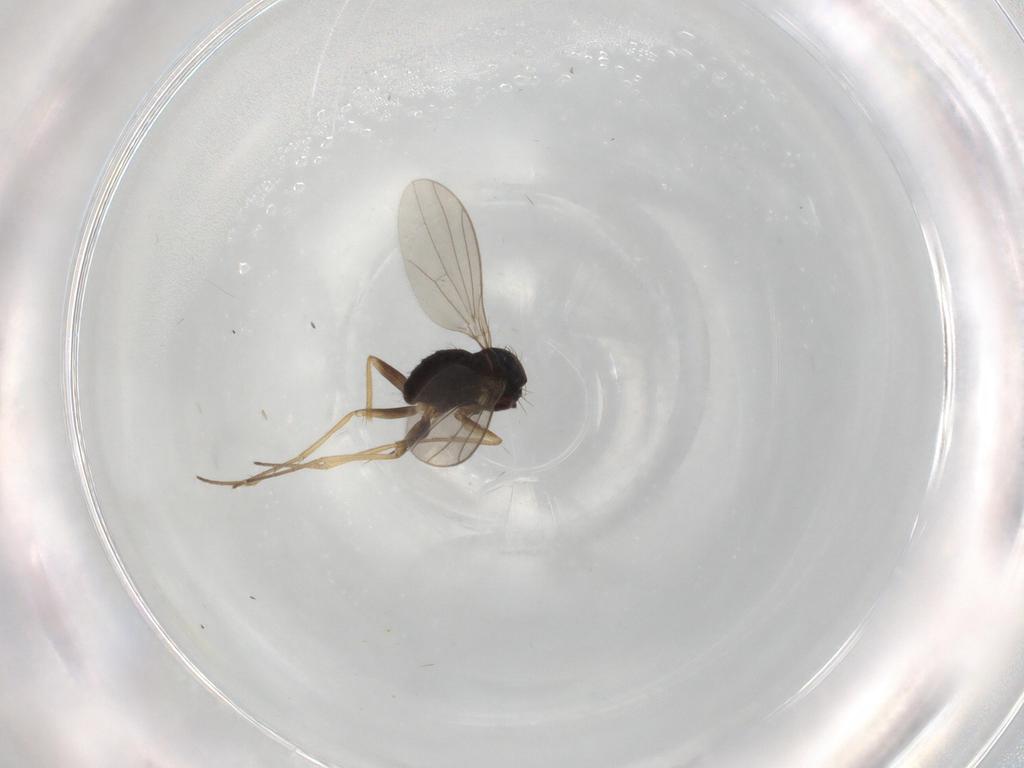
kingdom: Animalia
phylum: Arthropoda
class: Insecta
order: Diptera
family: Dolichopodidae
